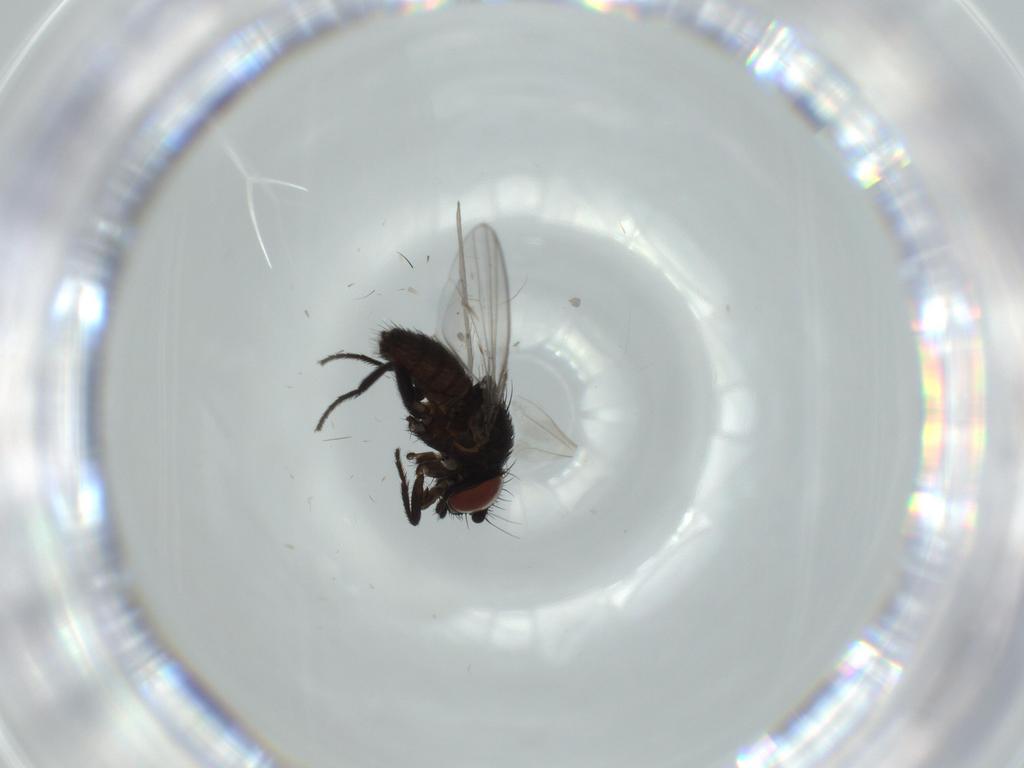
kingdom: Animalia
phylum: Arthropoda
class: Insecta
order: Diptera
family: Milichiidae
